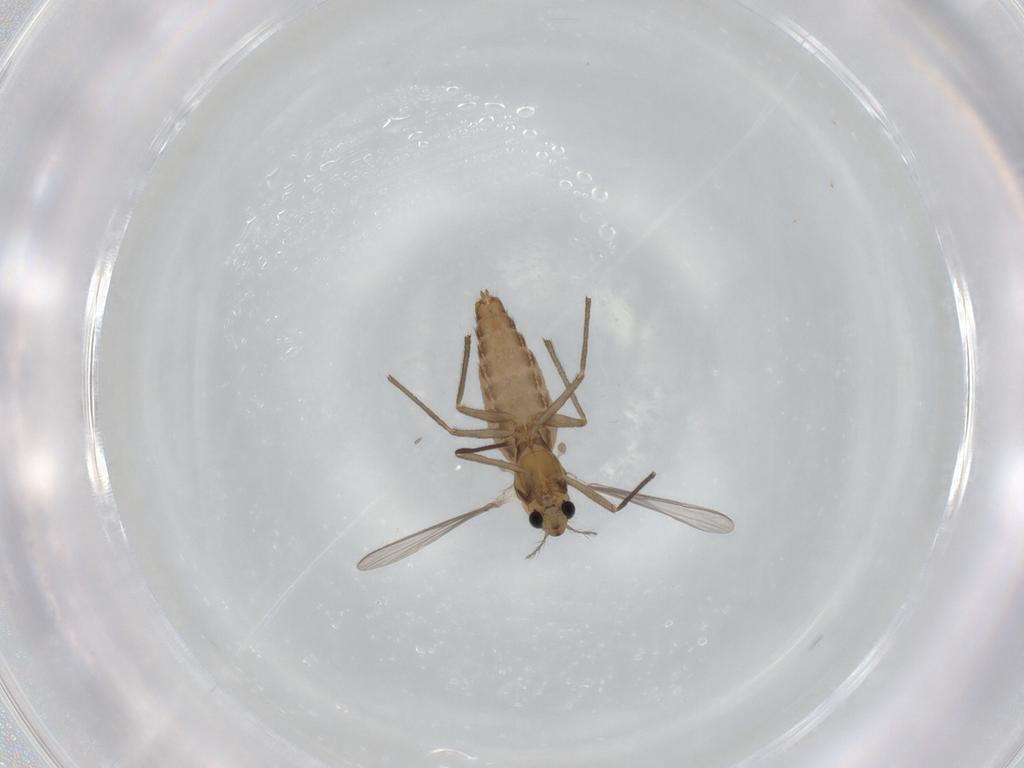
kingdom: Animalia
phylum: Arthropoda
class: Insecta
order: Diptera
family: Chironomidae
